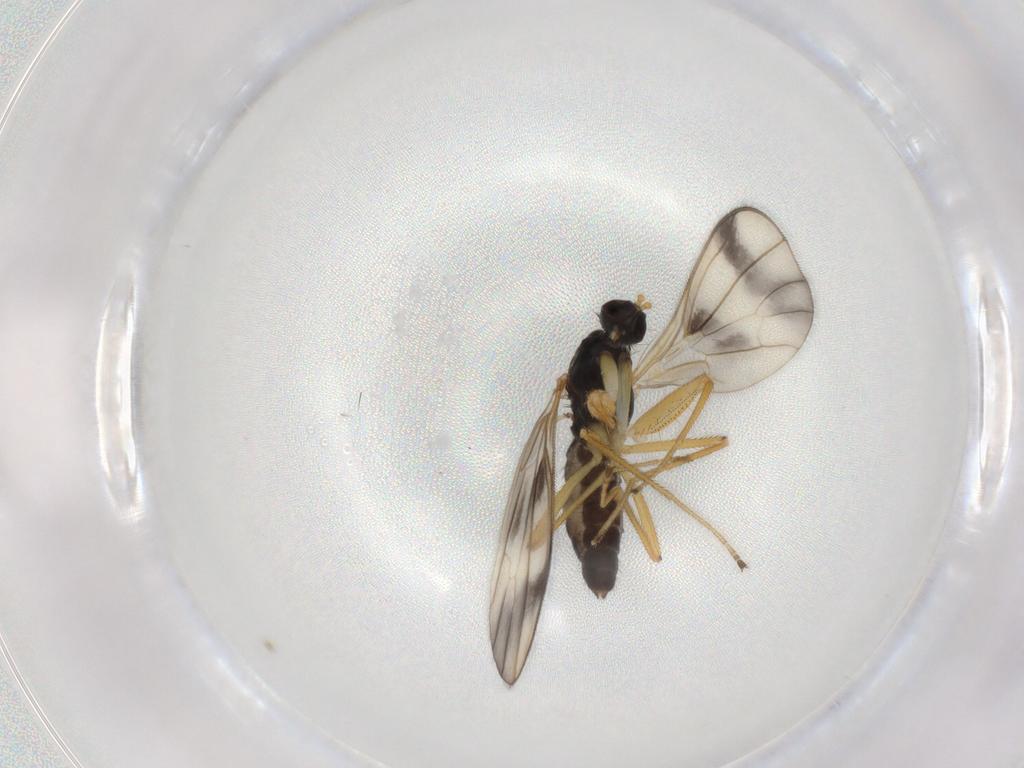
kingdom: Animalia
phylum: Arthropoda
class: Insecta
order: Diptera
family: Empididae
